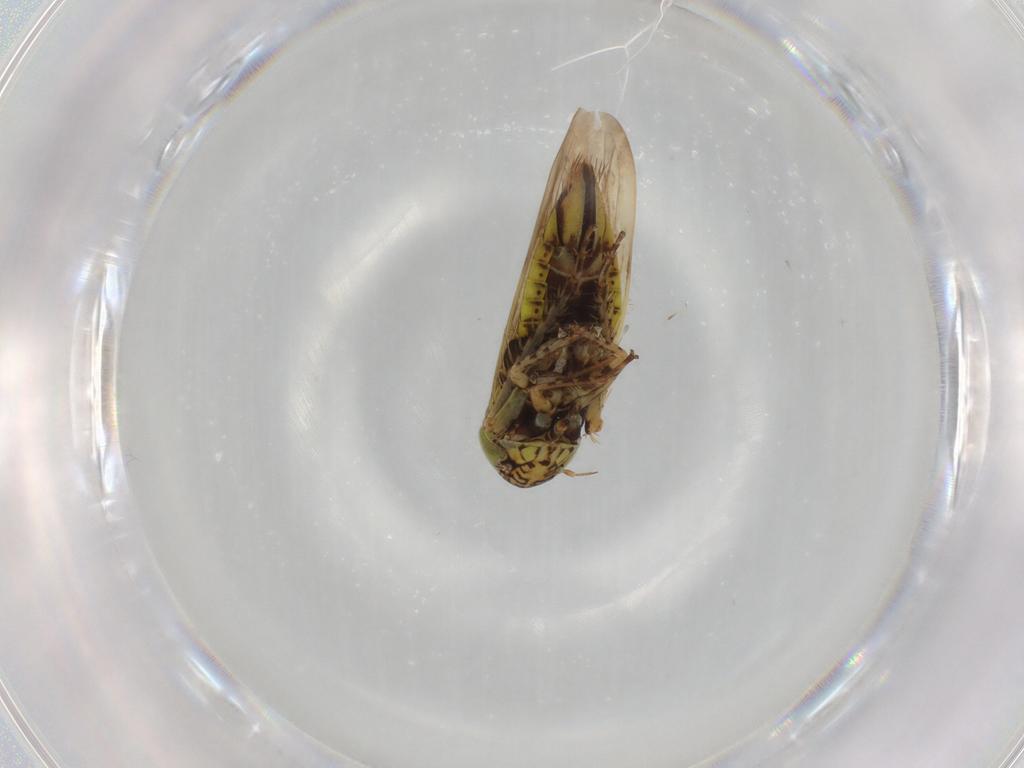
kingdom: Animalia
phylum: Arthropoda
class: Insecta
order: Hemiptera
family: Cicadellidae
